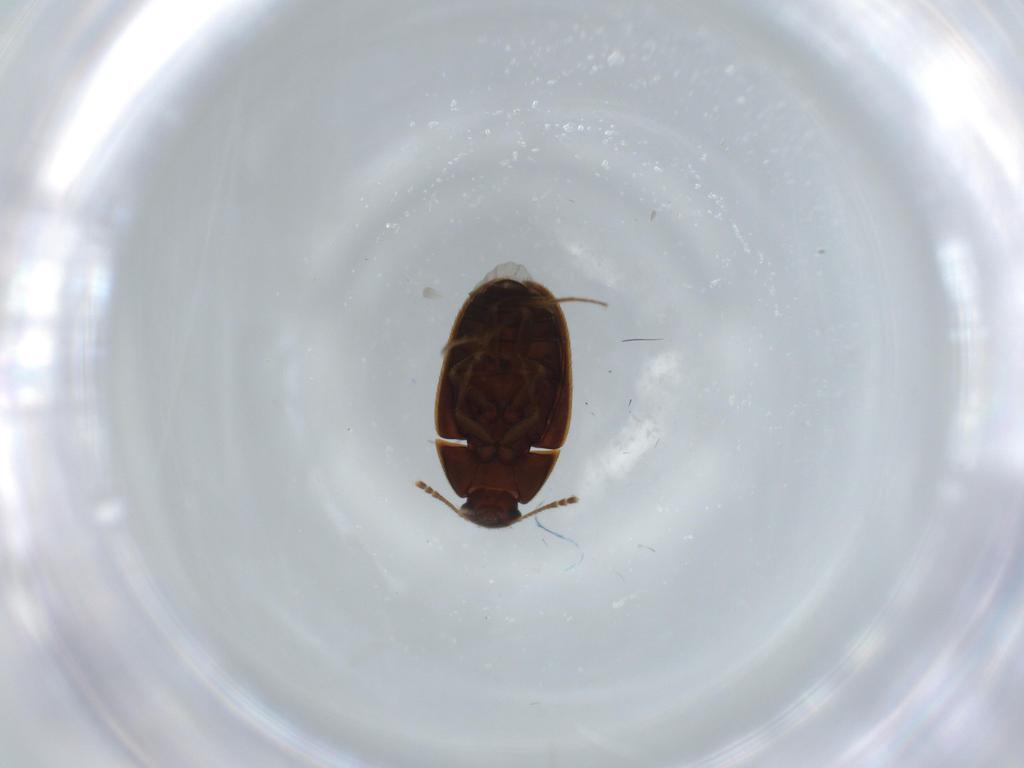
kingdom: Animalia
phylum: Arthropoda
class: Insecta
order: Coleoptera
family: Mycetophagidae
